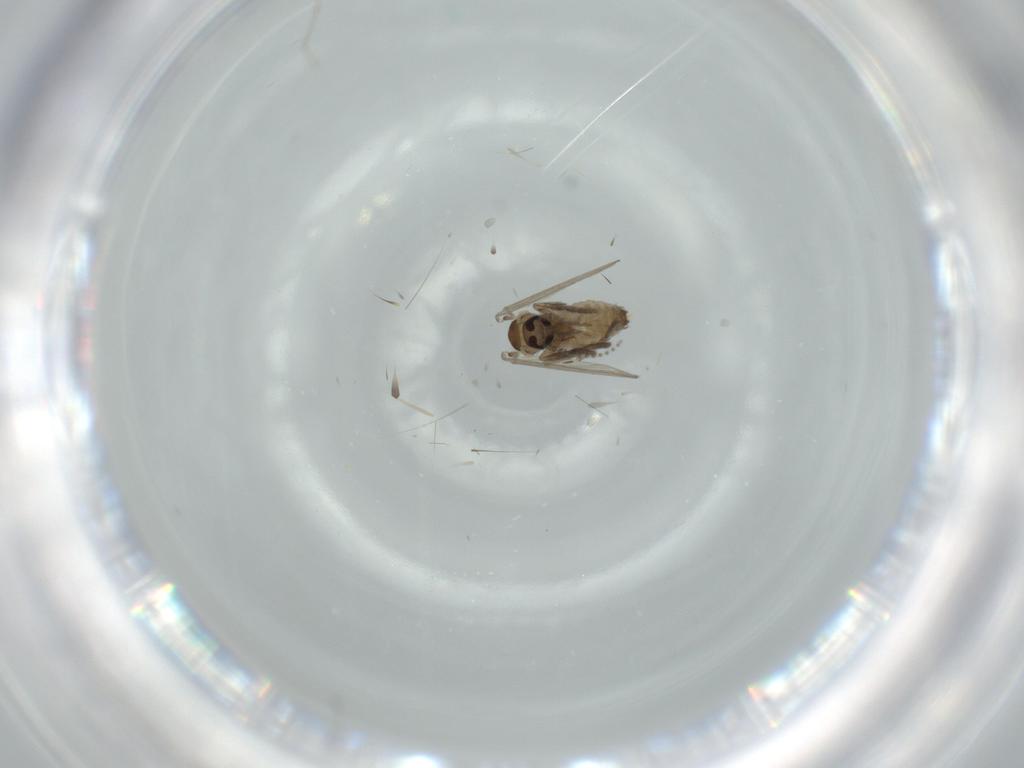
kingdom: Animalia
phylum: Arthropoda
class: Insecta
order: Diptera
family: Psychodidae
